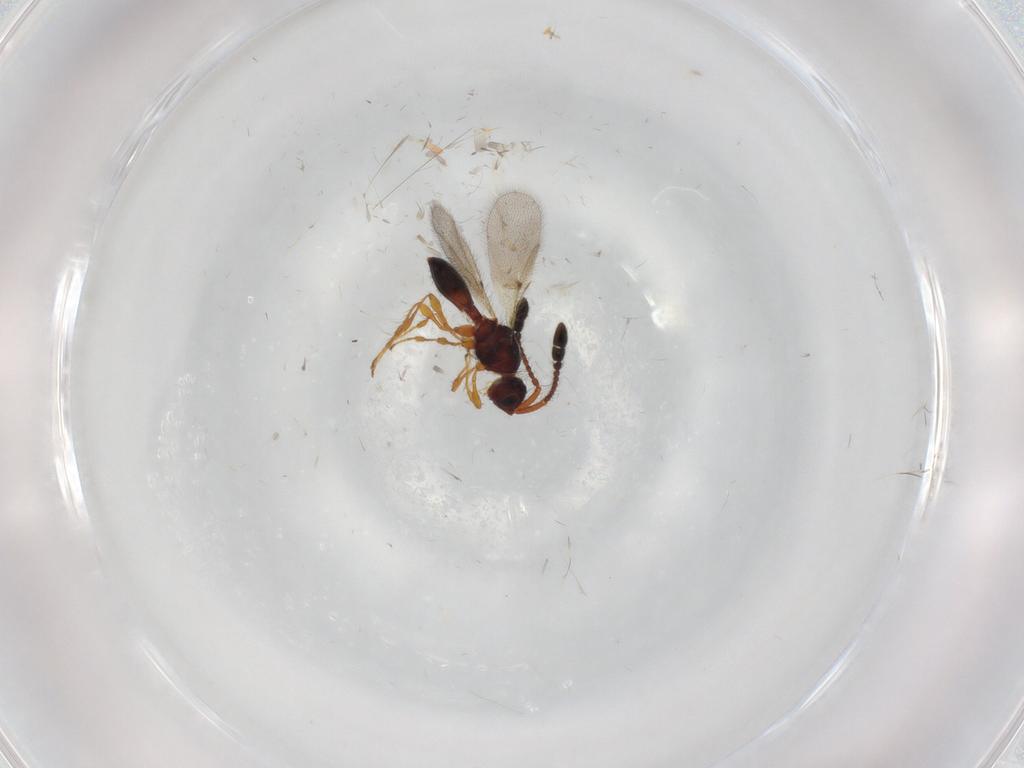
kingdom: Animalia
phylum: Arthropoda
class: Insecta
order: Hymenoptera
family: Diapriidae
